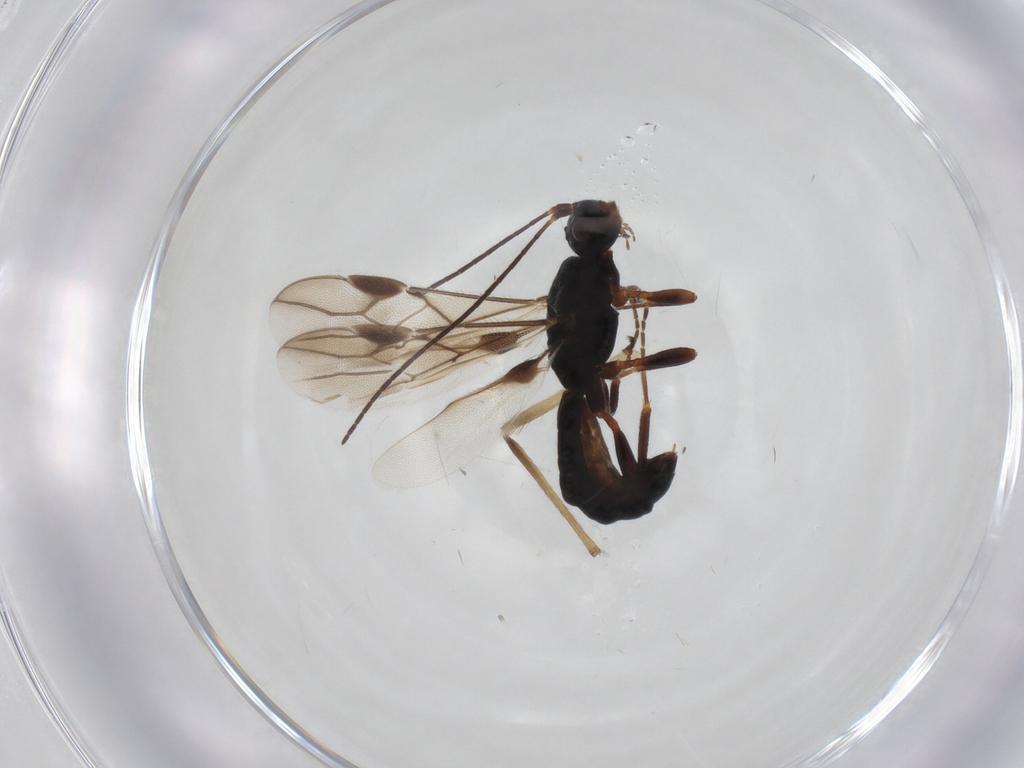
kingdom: Animalia
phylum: Arthropoda
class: Insecta
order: Hymenoptera
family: Braconidae
